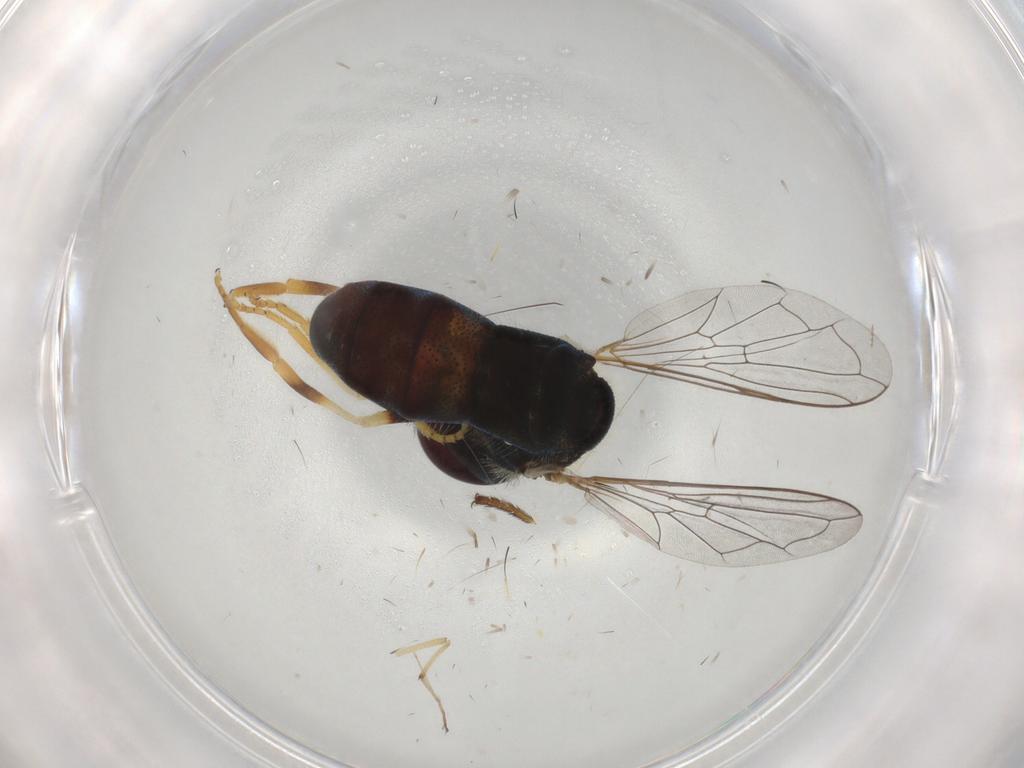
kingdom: Animalia
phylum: Arthropoda
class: Insecta
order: Diptera
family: Syrphidae
